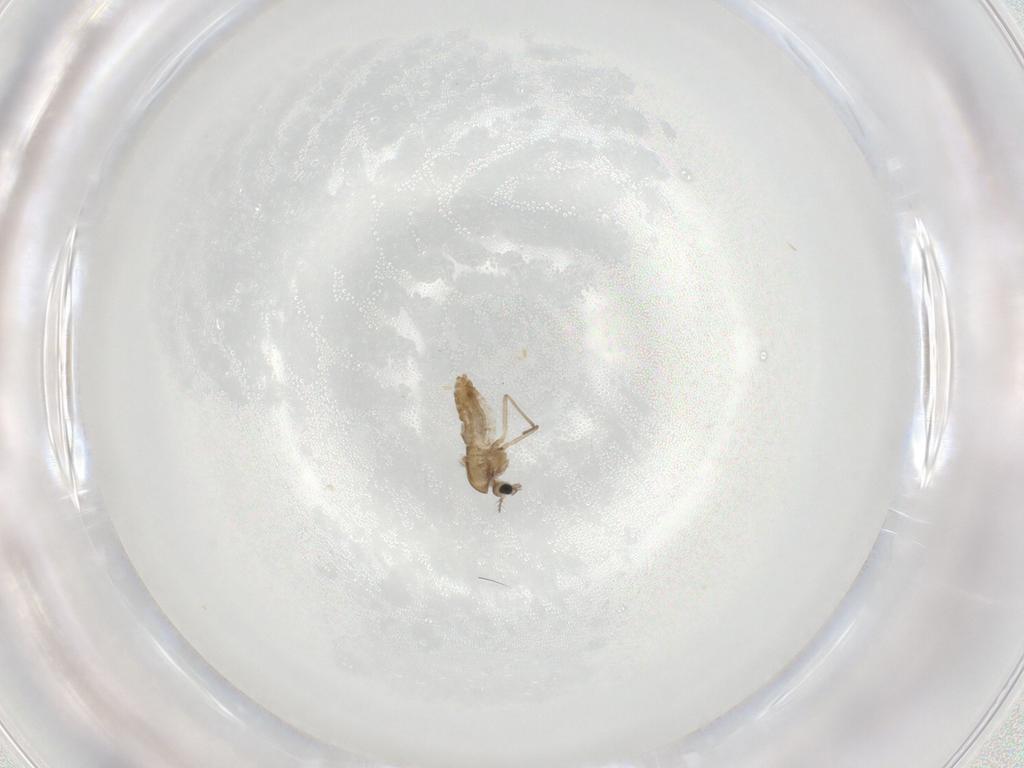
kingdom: Animalia
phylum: Arthropoda
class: Insecta
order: Diptera
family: Chironomidae
